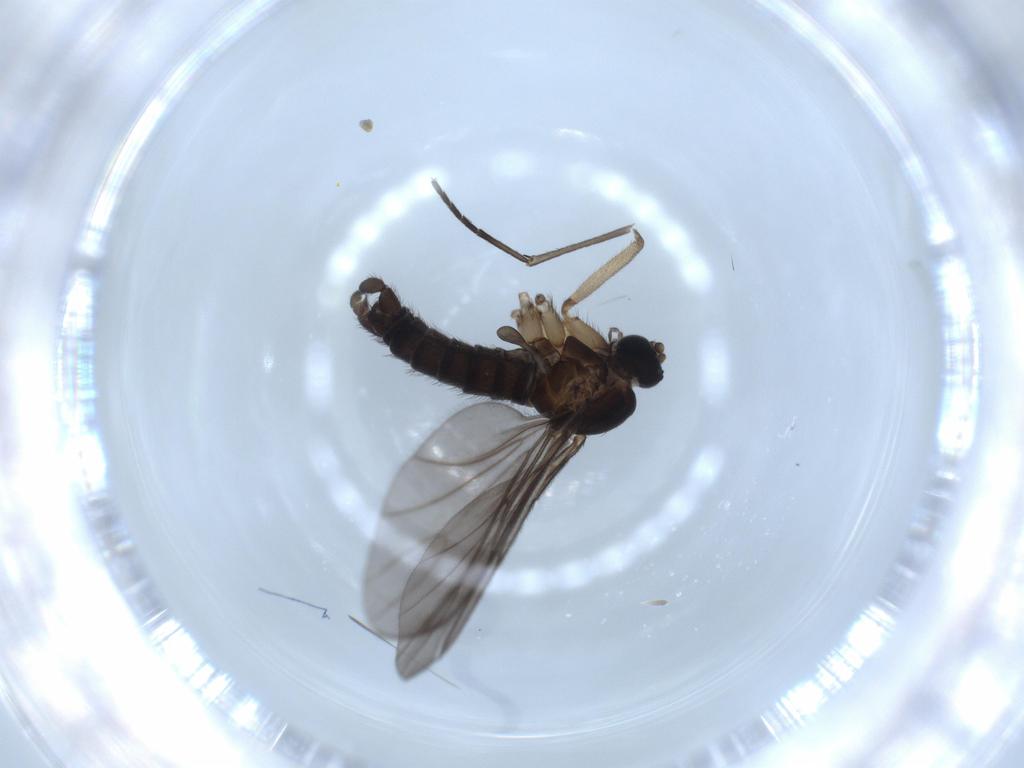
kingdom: Animalia
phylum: Arthropoda
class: Insecta
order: Diptera
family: Sciaridae
